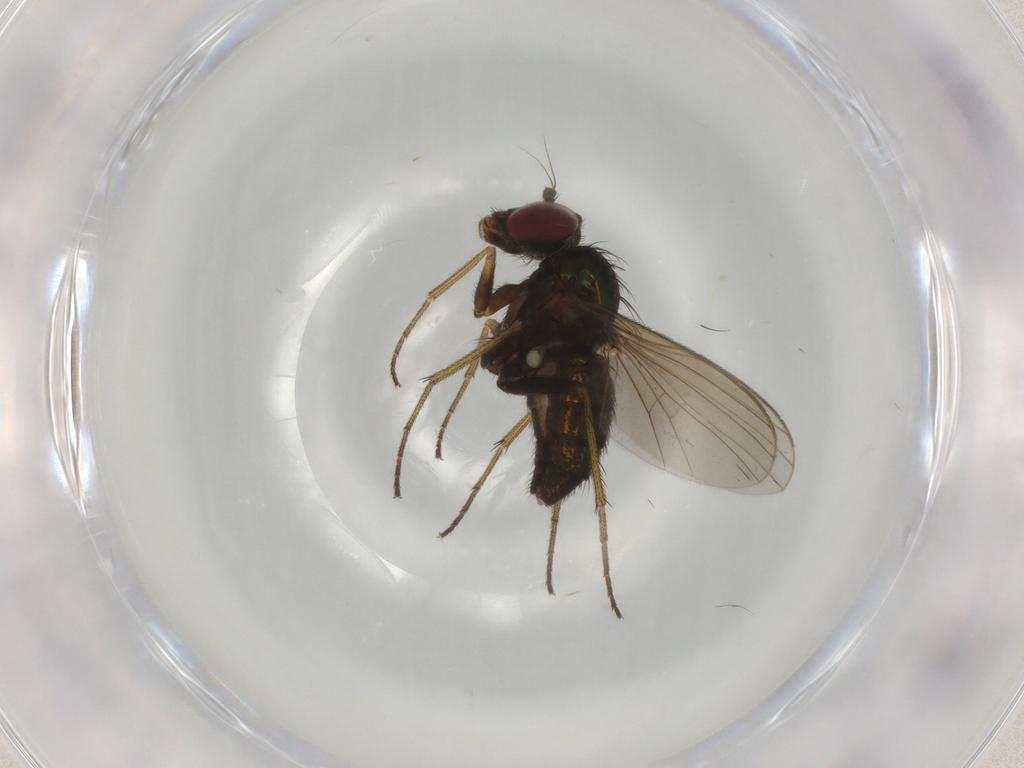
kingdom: Animalia
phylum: Arthropoda
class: Insecta
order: Diptera
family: Dolichopodidae
